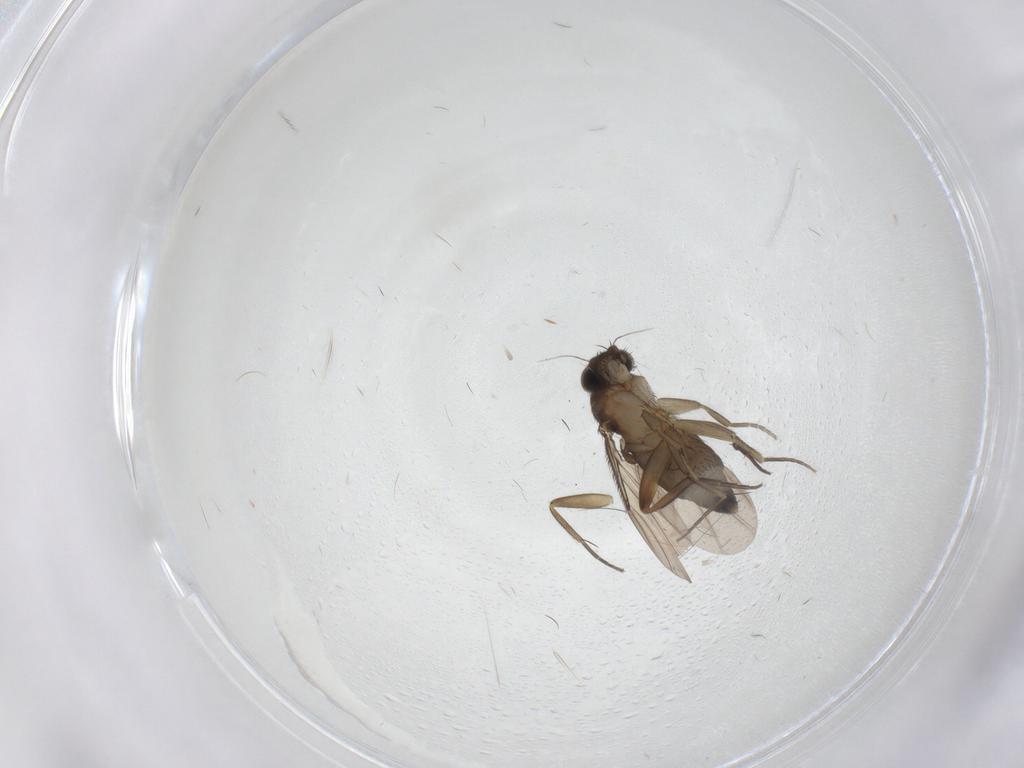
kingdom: Animalia
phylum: Arthropoda
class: Insecta
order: Diptera
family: Phoridae
